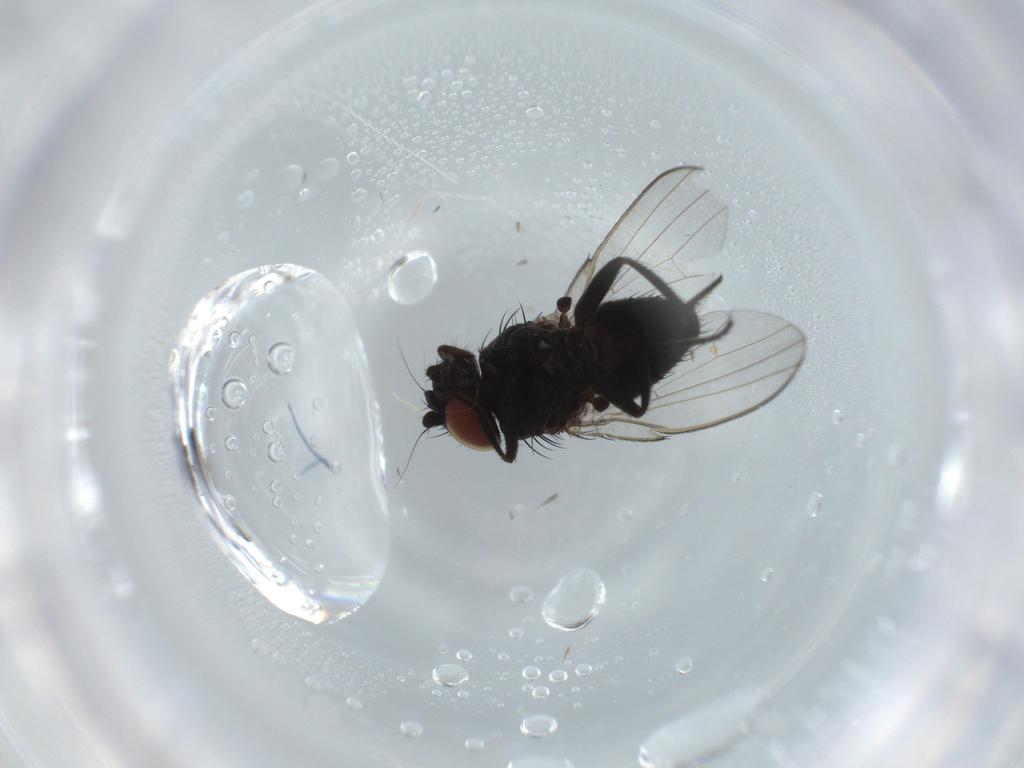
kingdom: Animalia
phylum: Arthropoda
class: Insecta
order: Diptera
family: Milichiidae
